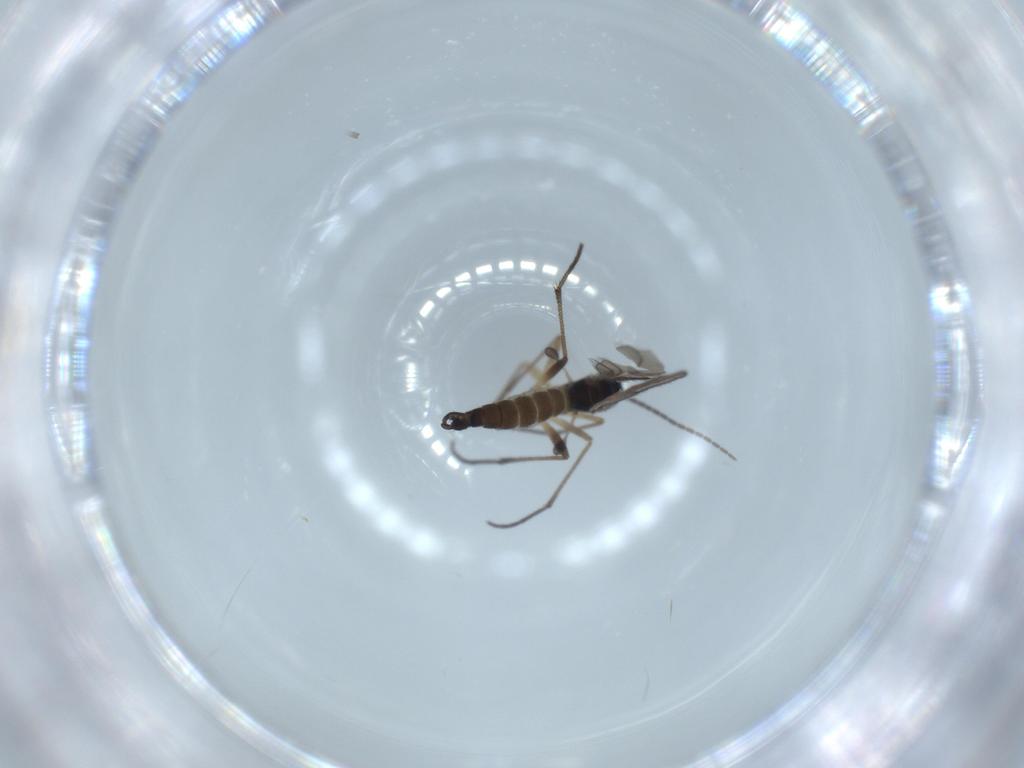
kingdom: Animalia
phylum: Arthropoda
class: Insecta
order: Diptera
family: Sciaridae
